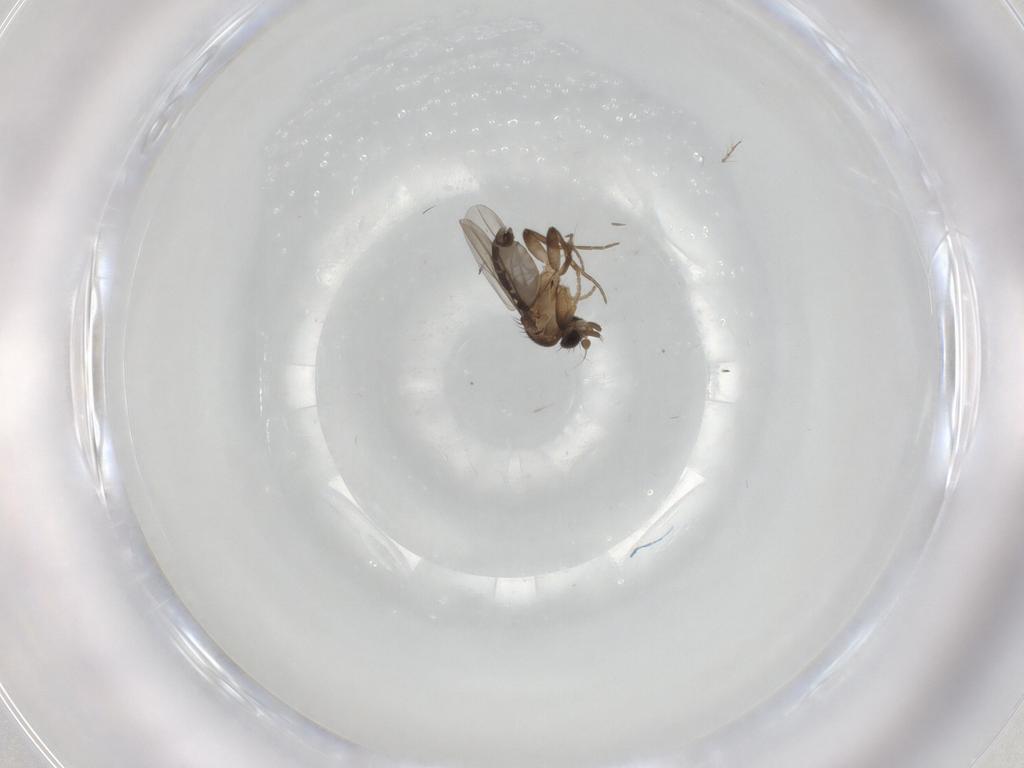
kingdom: Animalia
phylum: Arthropoda
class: Insecta
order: Diptera
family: Phoridae
